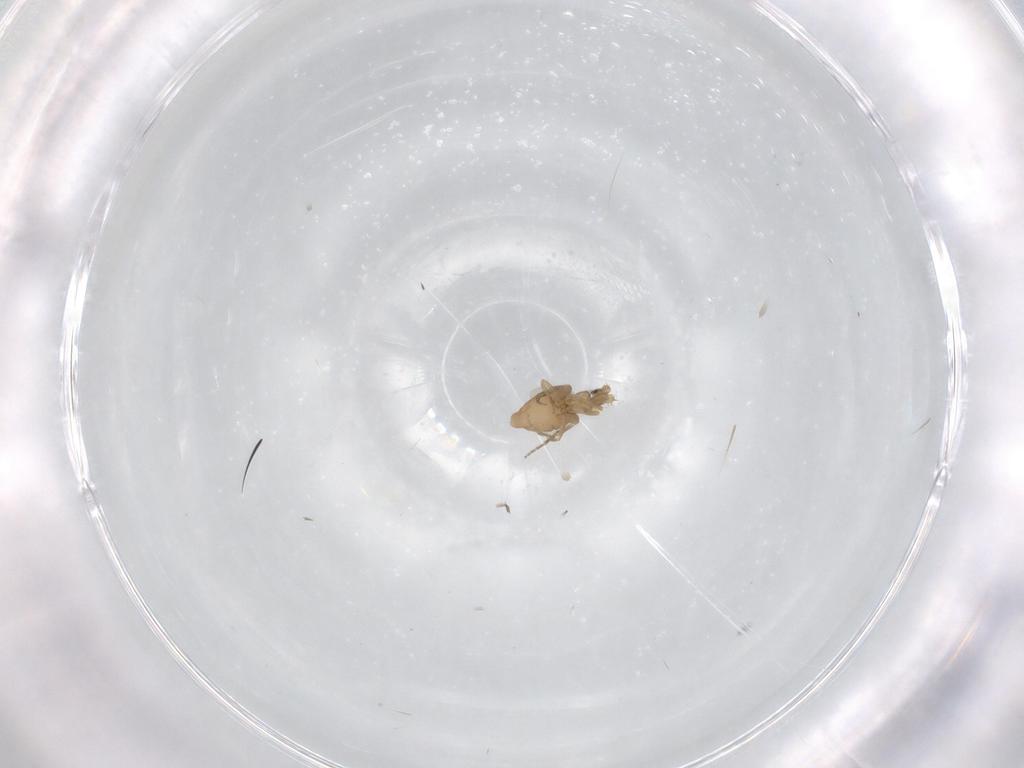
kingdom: Animalia
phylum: Arthropoda
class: Insecta
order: Diptera
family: Phoridae
